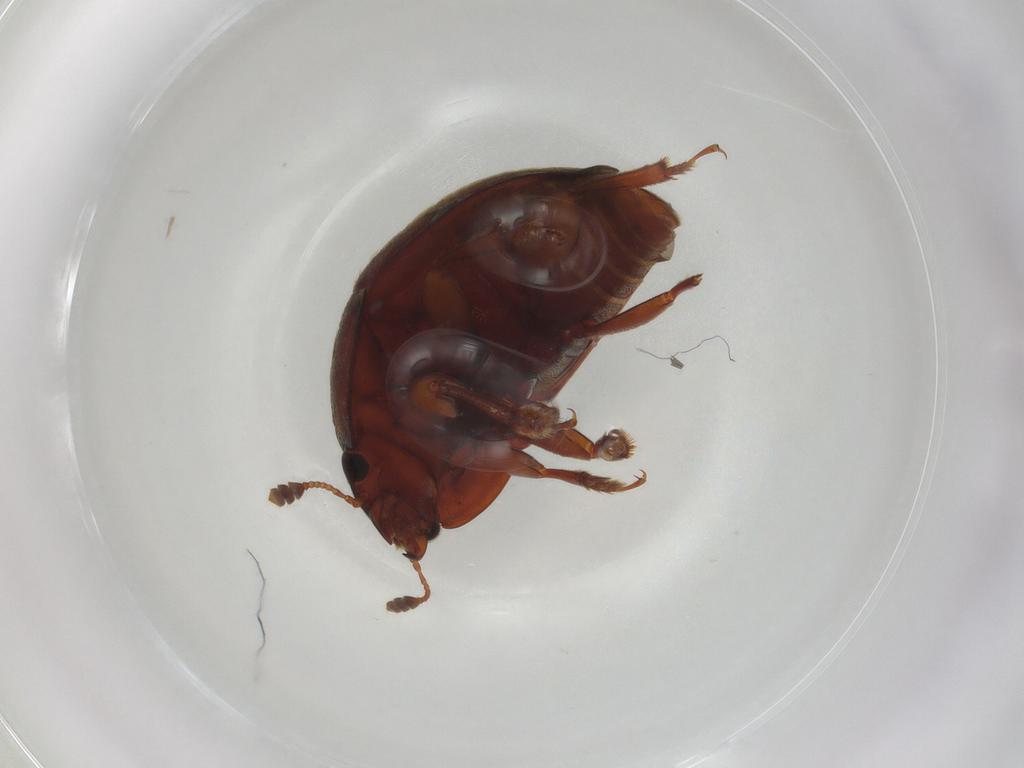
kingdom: Animalia
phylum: Arthropoda
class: Insecta
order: Coleoptera
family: Nitidulidae
